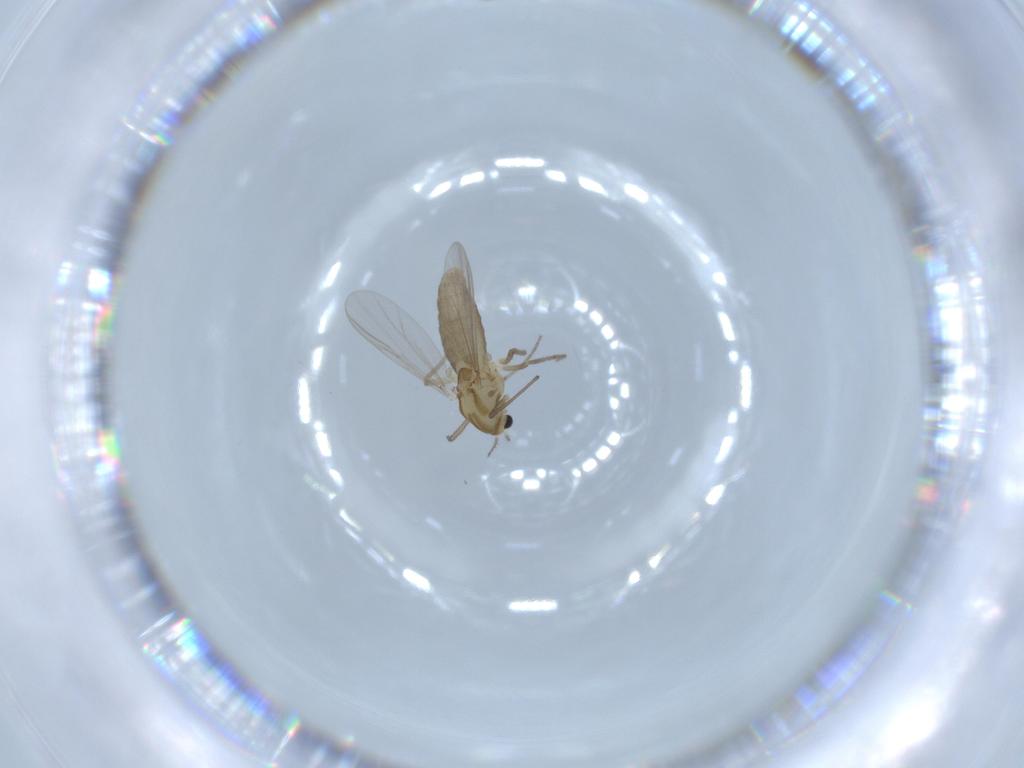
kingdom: Animalia
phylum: Arthropoda
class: Insecta
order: Diptera
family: Chironomidae
